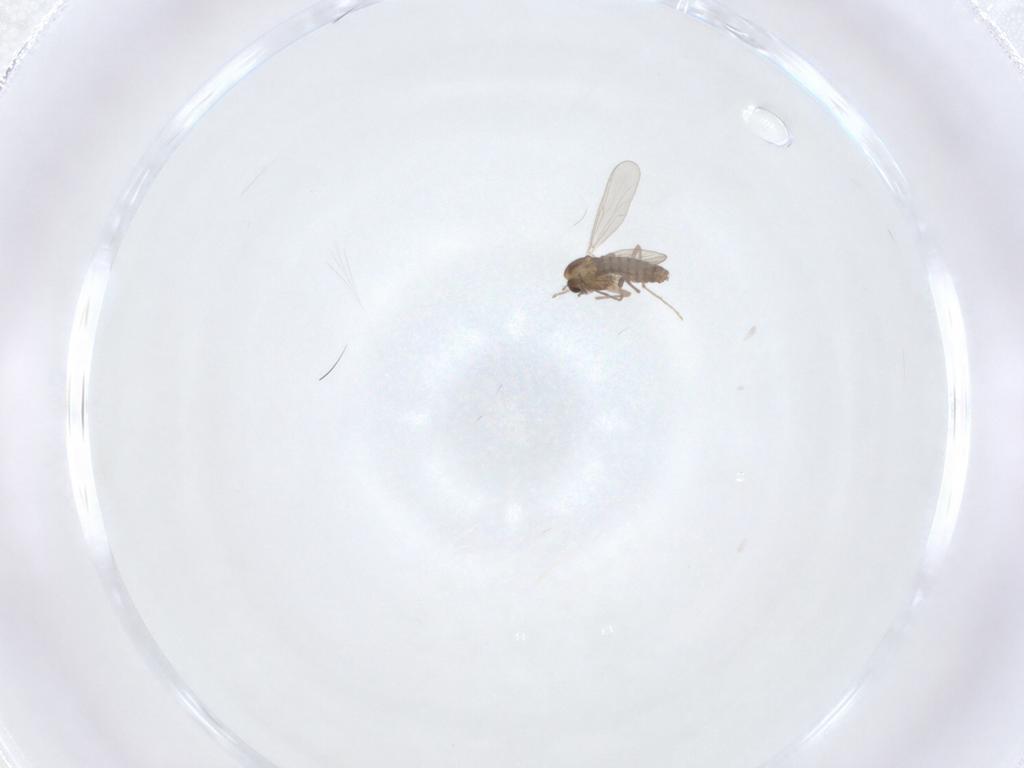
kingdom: Animalia
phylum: Arthropoda
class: Insecta
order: Diptera
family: Chironomidae
